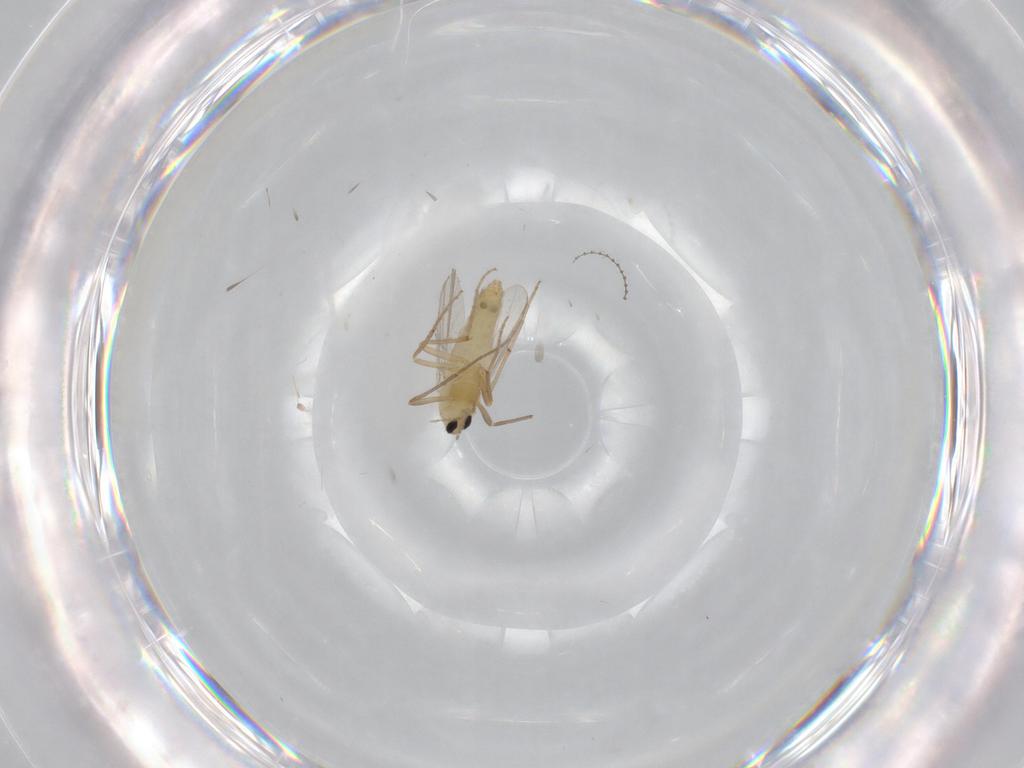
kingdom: Animalia
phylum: Arthropoda
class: Insecta
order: Diptera
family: Chironomidae
